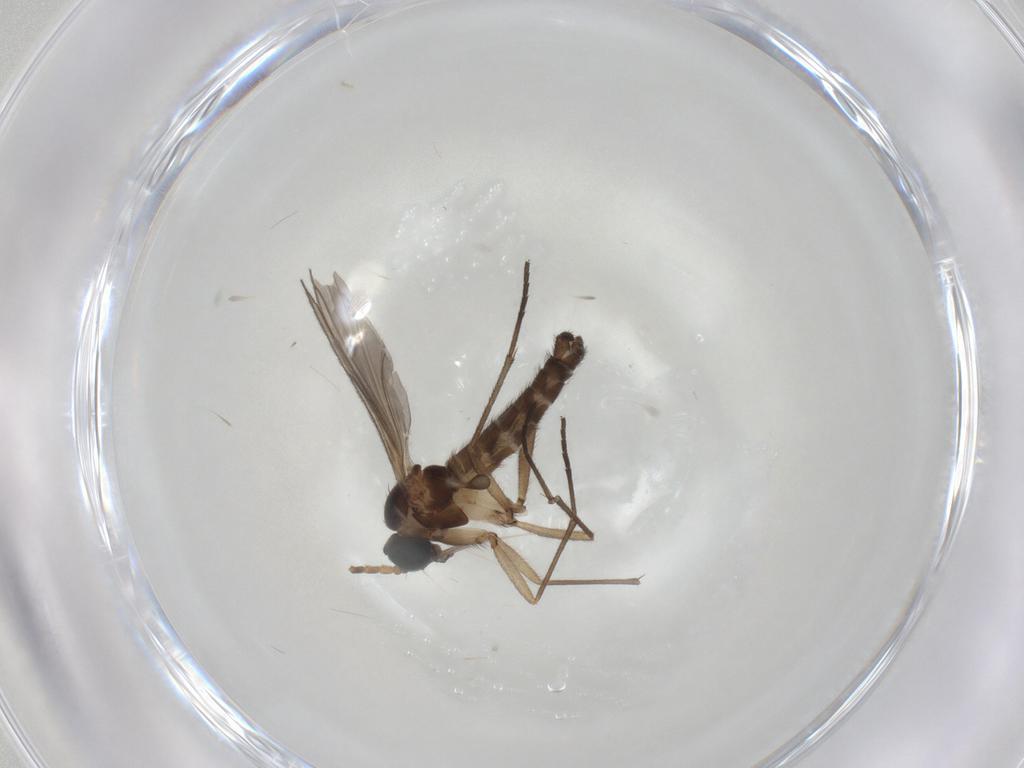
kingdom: Animalia
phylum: Arthropoda
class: Insecta
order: Diptera
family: Sciaridae
